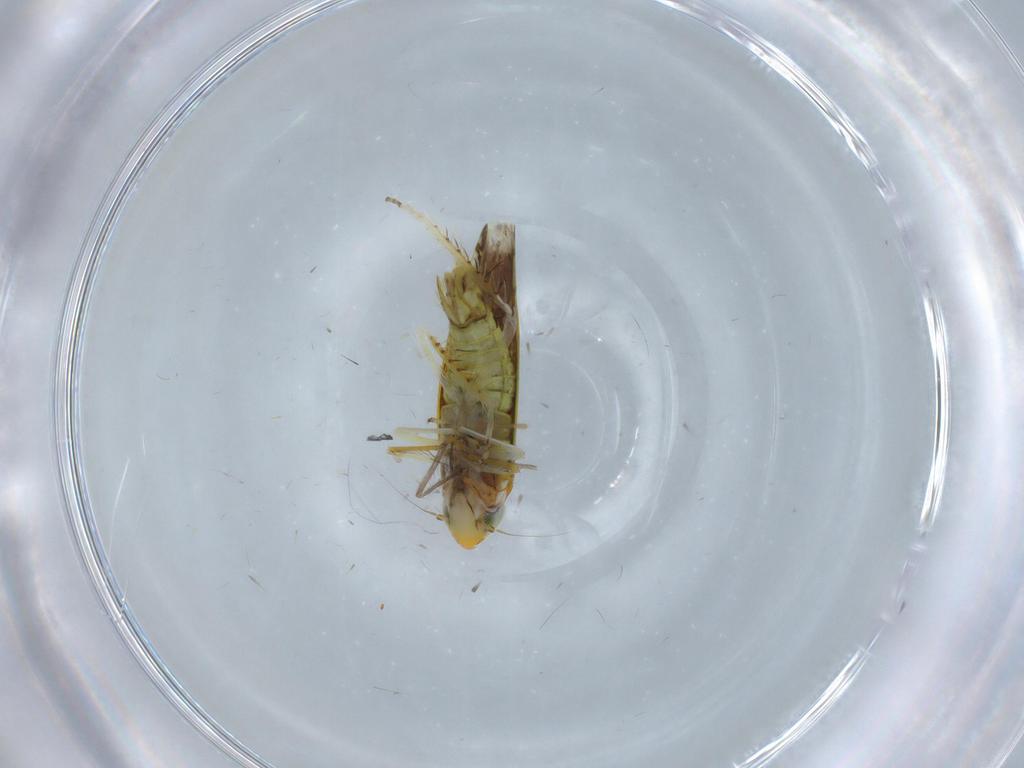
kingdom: Animalia
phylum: Arthropoda
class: Insecta
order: Hemiptera
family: Cicadellidae
